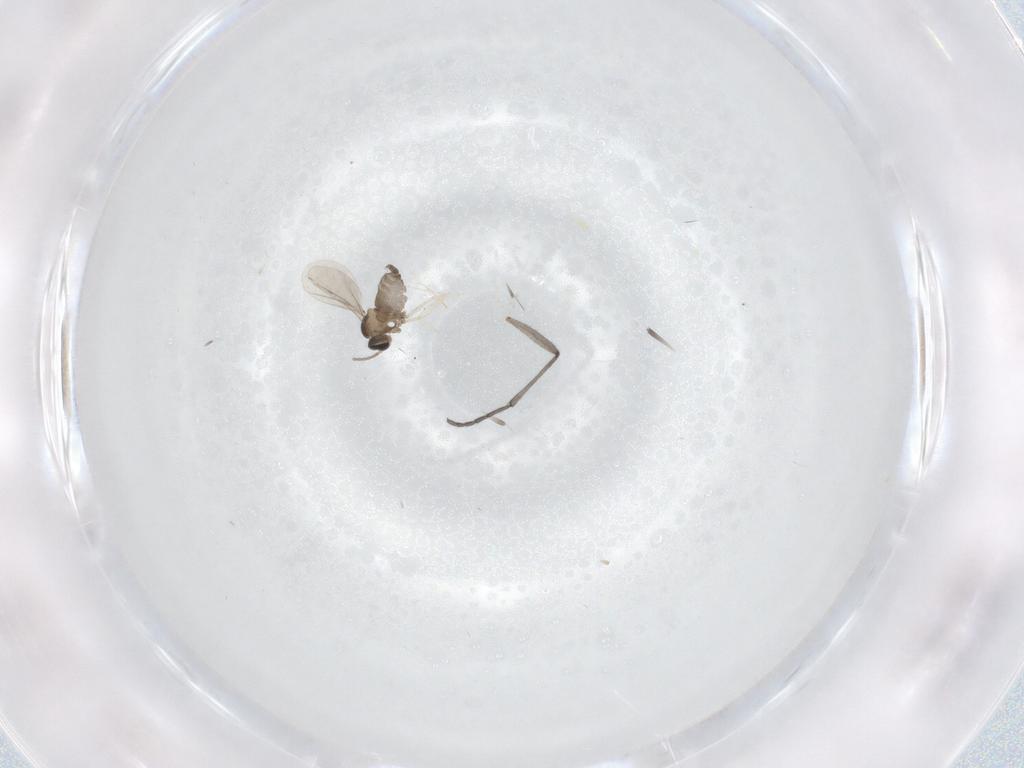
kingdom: Animalia
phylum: Arthropoda
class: Insecta
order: Diptera
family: Sciaridae
